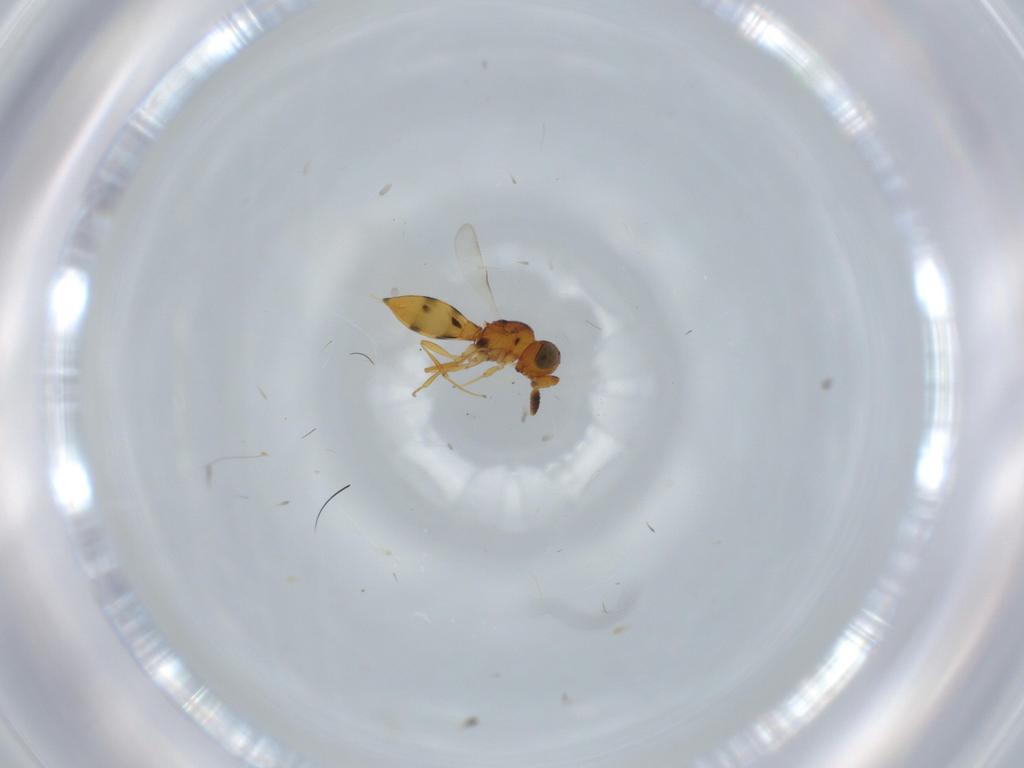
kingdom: Animalia
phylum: Arthropoda
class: Insecta
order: Hymenoptera
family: Scelionidae
